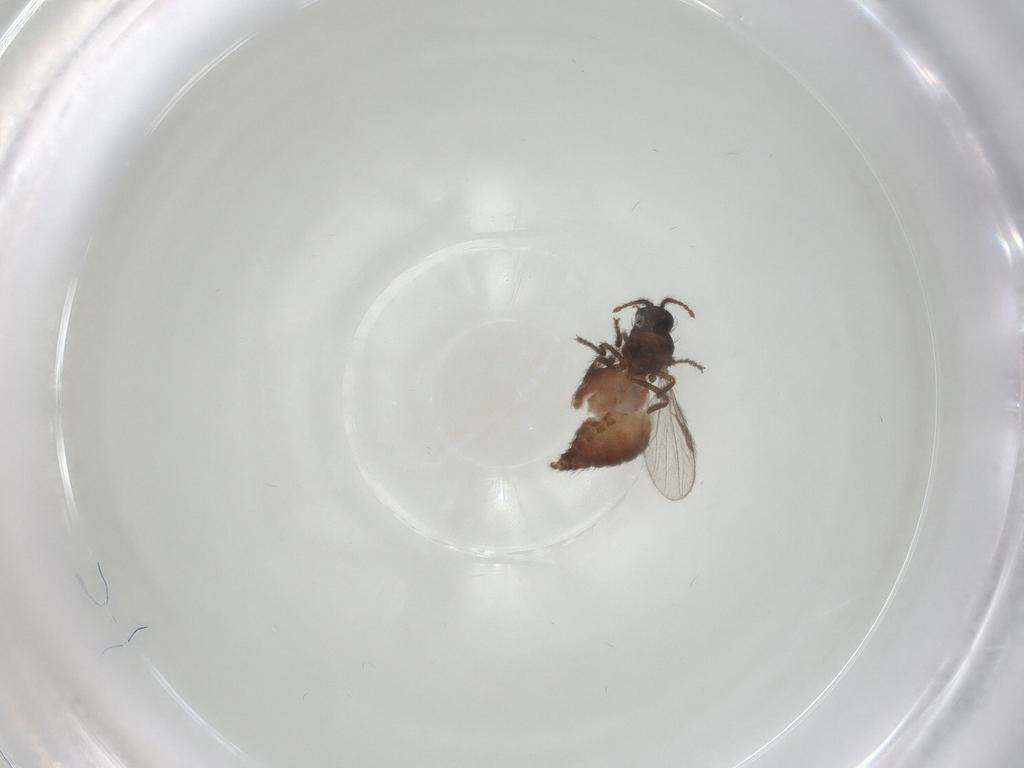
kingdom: Animalia
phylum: Arthropoda
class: Insecta
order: Diptera
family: Ceratopogonidae
